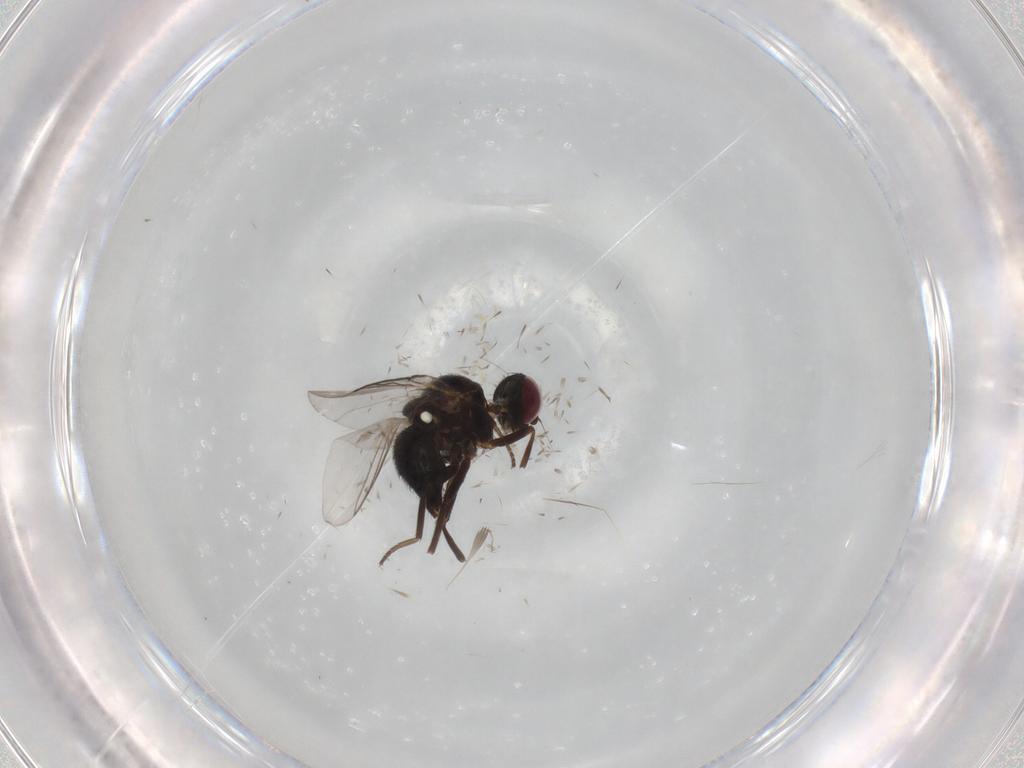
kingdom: Animalia
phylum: Arthropoda
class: Insecta
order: Diptera
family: Agromyzidae
